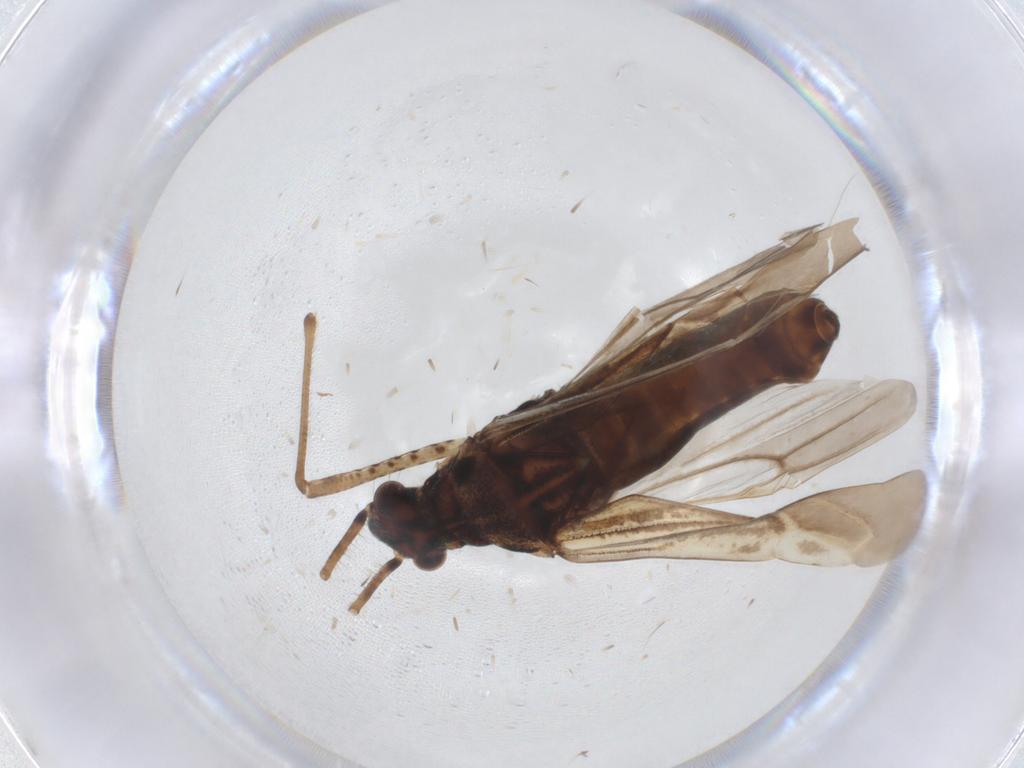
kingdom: Animalia
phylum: Arthropoda
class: Insecta
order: Hemiptera
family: Miridae
